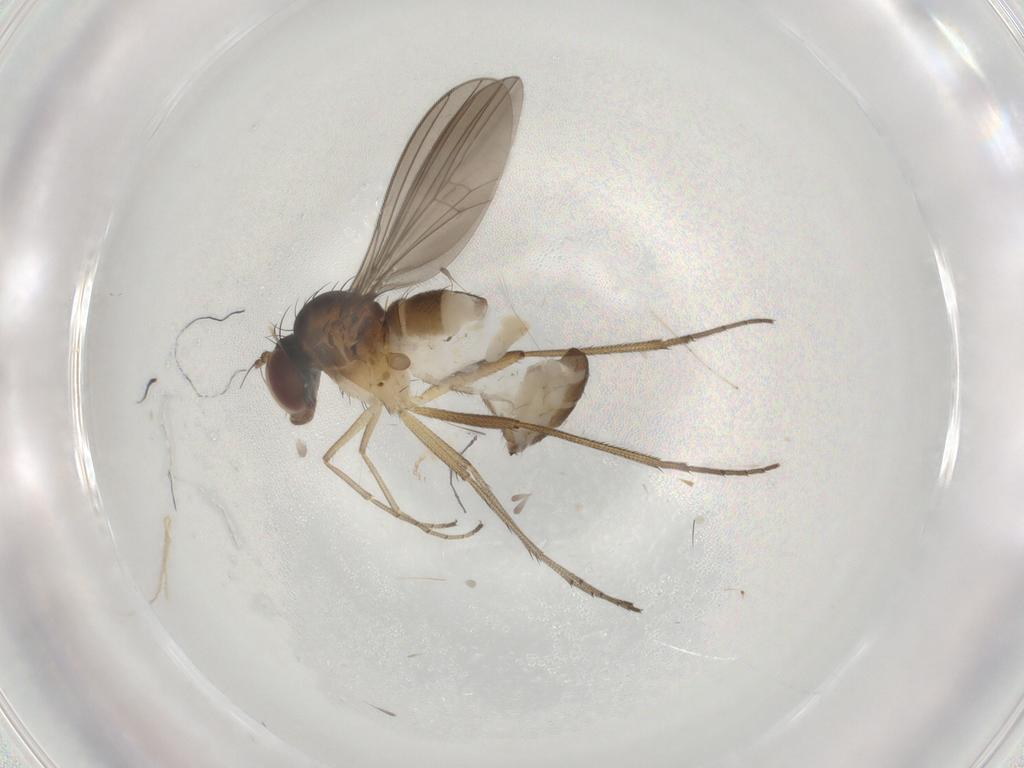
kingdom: Animalia
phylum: Arthropoda
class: Insecta
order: Diptera
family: Dolichopodidae
